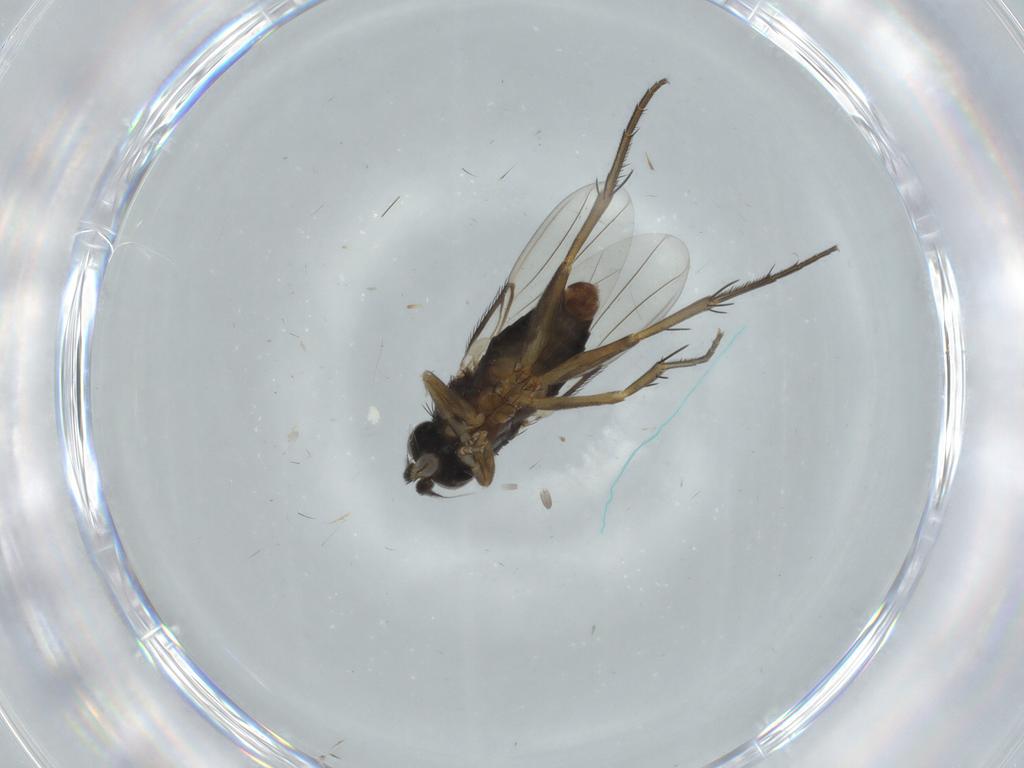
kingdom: Animalia
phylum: Arthropoda
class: Insecta
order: Diptera
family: Phoridae
